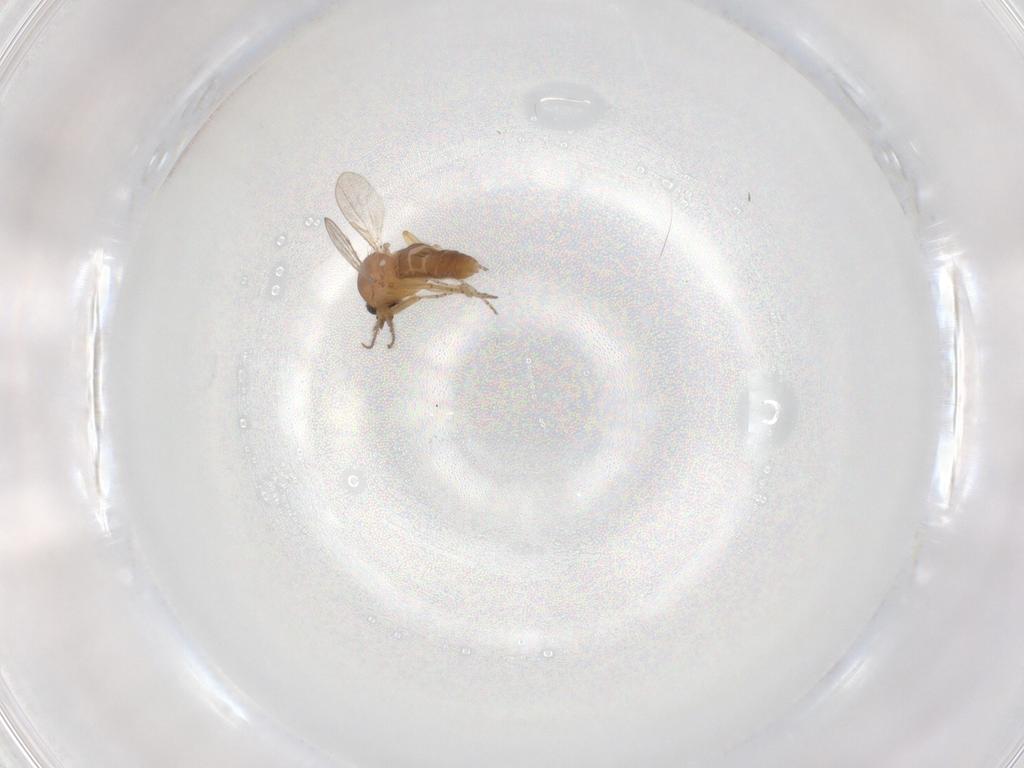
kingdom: Animalia
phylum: Arthropoda
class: Insecta
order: Diptera
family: Ceratopogonidae
